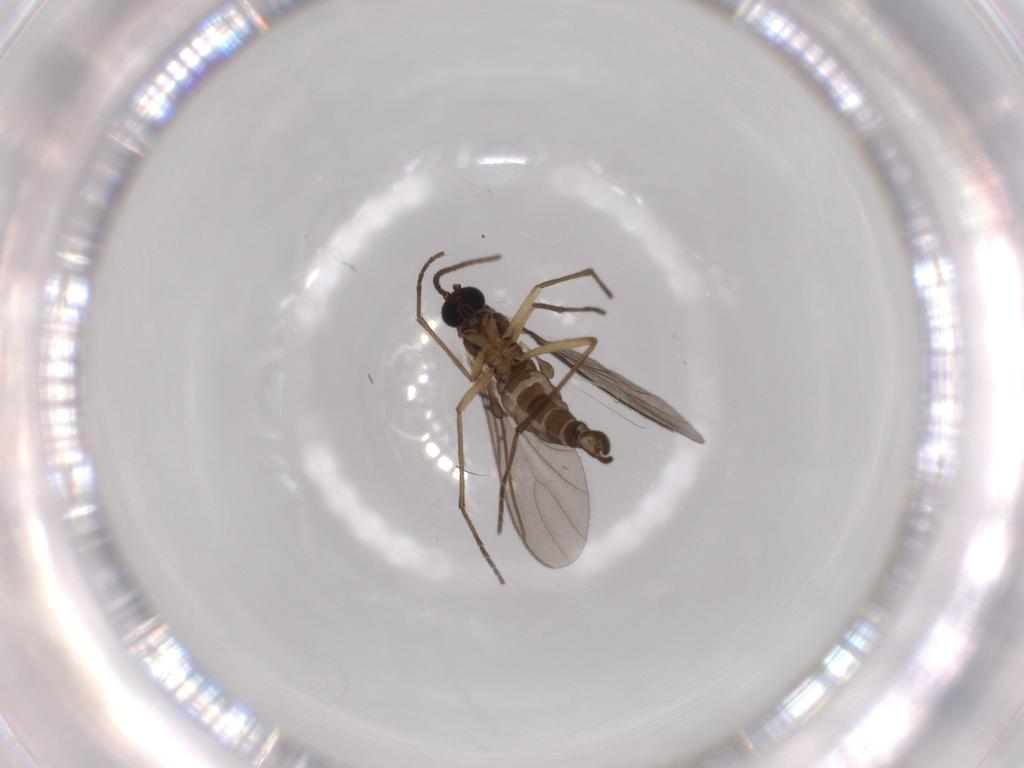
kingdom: Animalia
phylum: Arthropoda
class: Insecta
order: Diptera
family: Sciaridae
